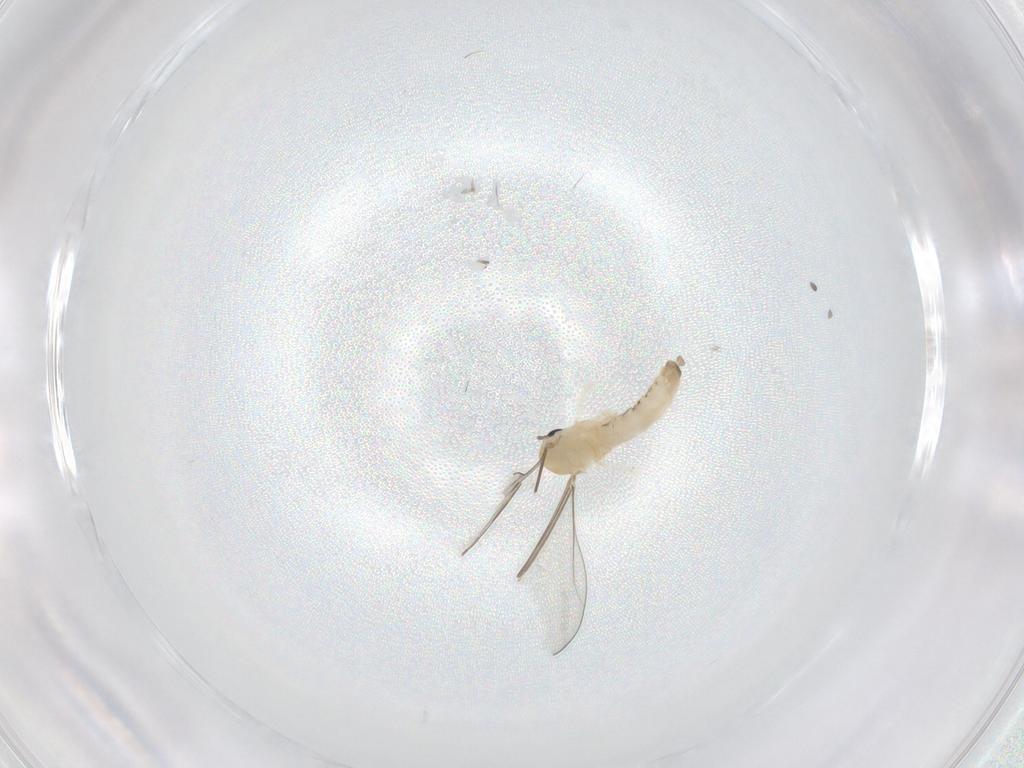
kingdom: Animalia
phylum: Arthropoda
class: Insecta
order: Diptera
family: Cecidomyiidae
